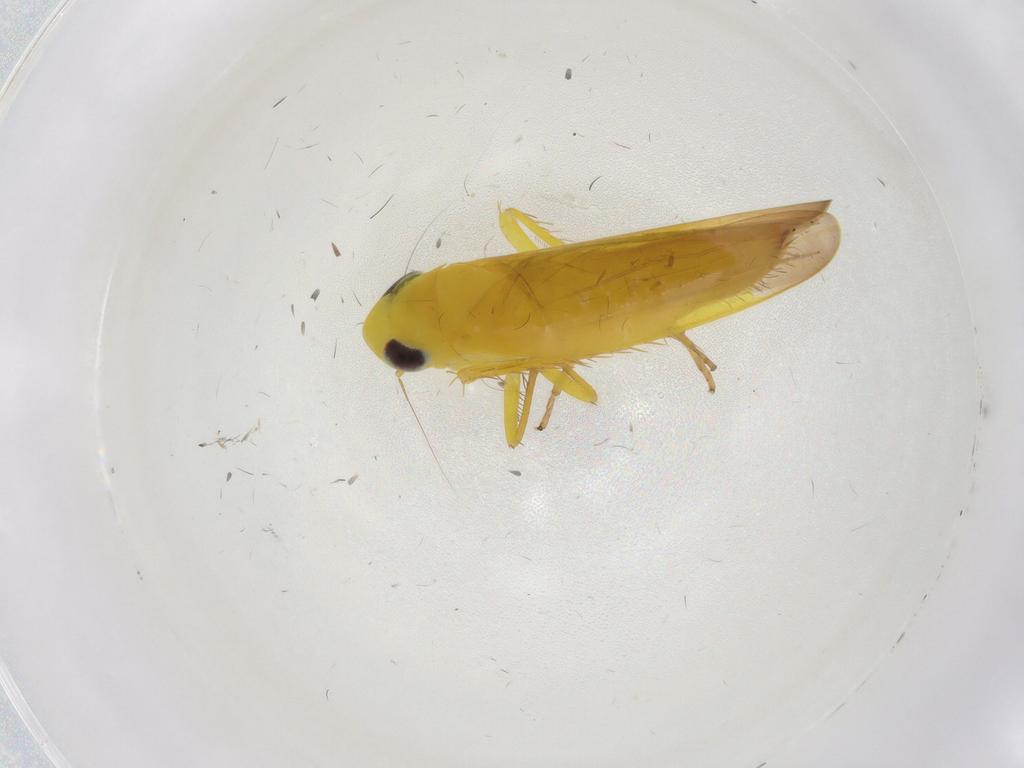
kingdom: Animalia
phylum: Arthropoda
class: Insecta
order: Hemiptera
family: Cicadellidae
